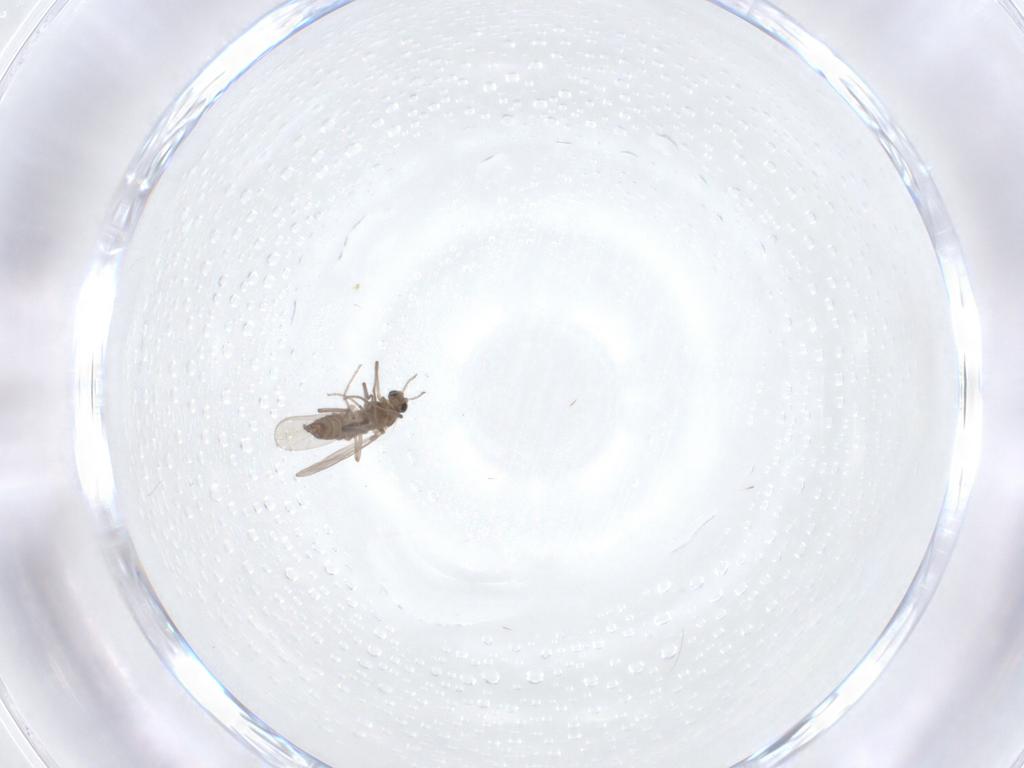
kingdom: Animalia
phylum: Arthropoda
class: Insecta
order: Diptera
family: Chironomidae
